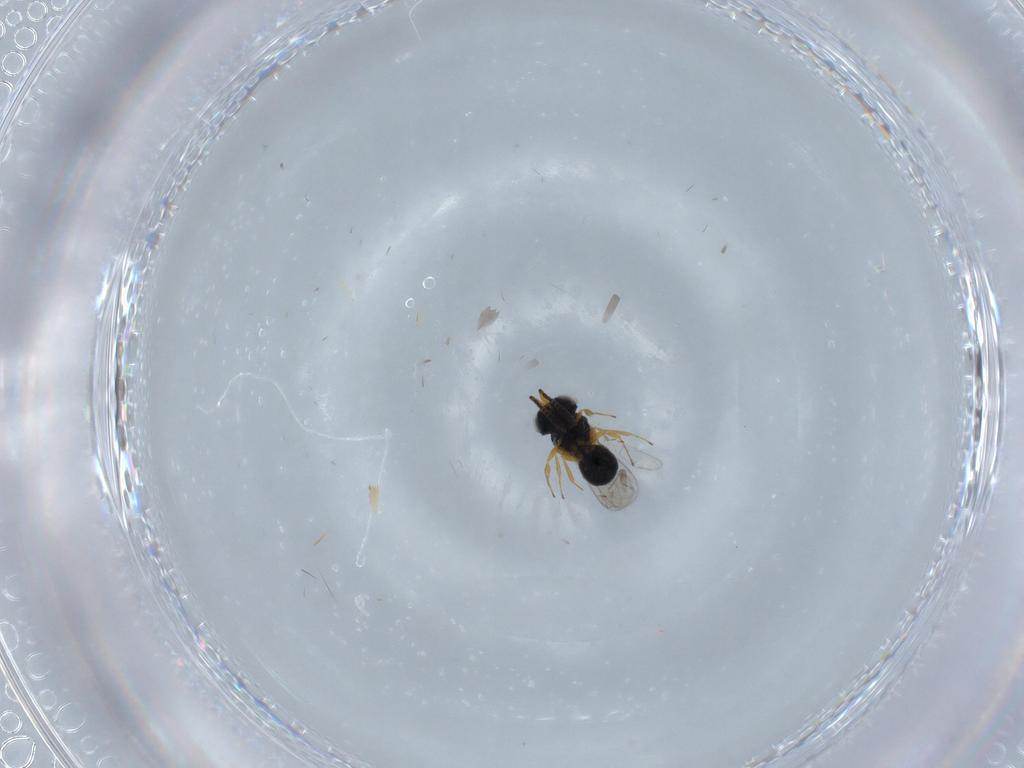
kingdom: Animalia
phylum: Arthropoda
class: Insecta
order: Hymenoptera
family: Scelionidae
